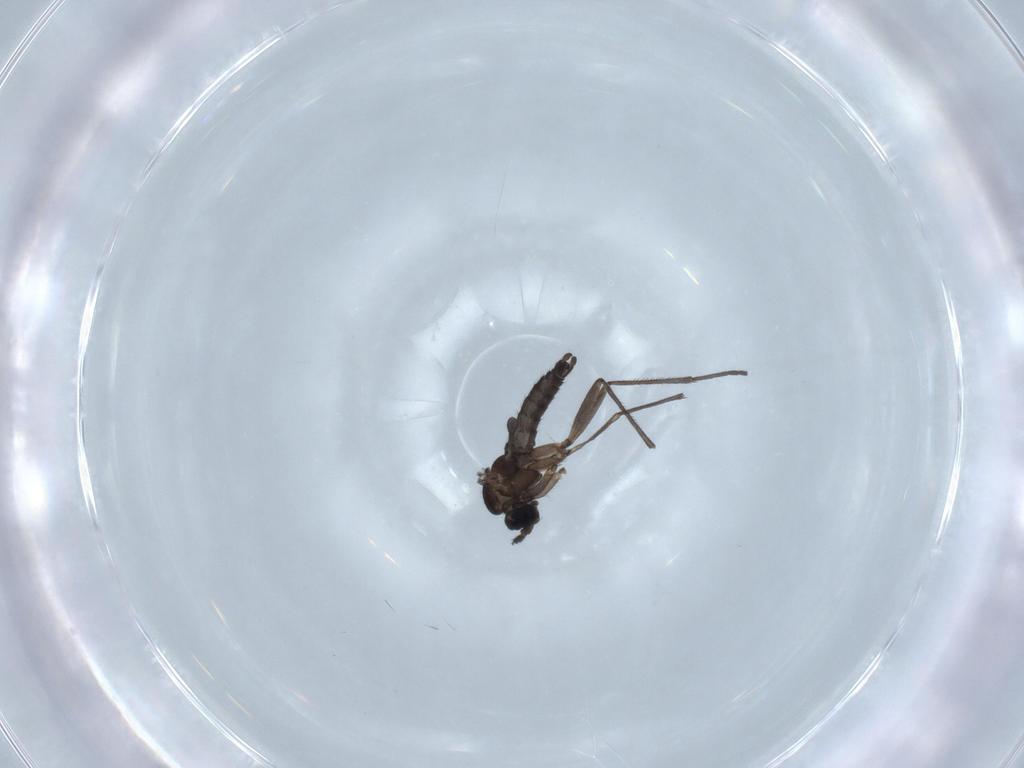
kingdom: Animalia
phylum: Arthropoda
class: Insecta
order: Diptera
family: Sciaridae
